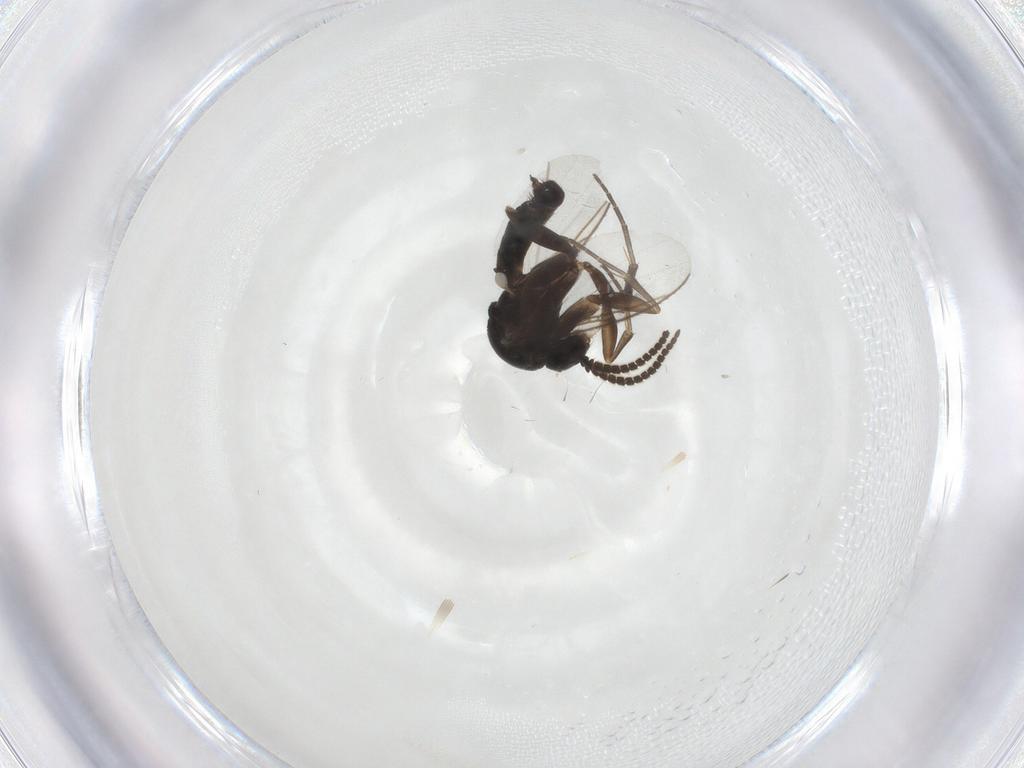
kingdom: Animalia
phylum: Arthropoda
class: Insecta
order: Diptera
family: Mycetophilidae
